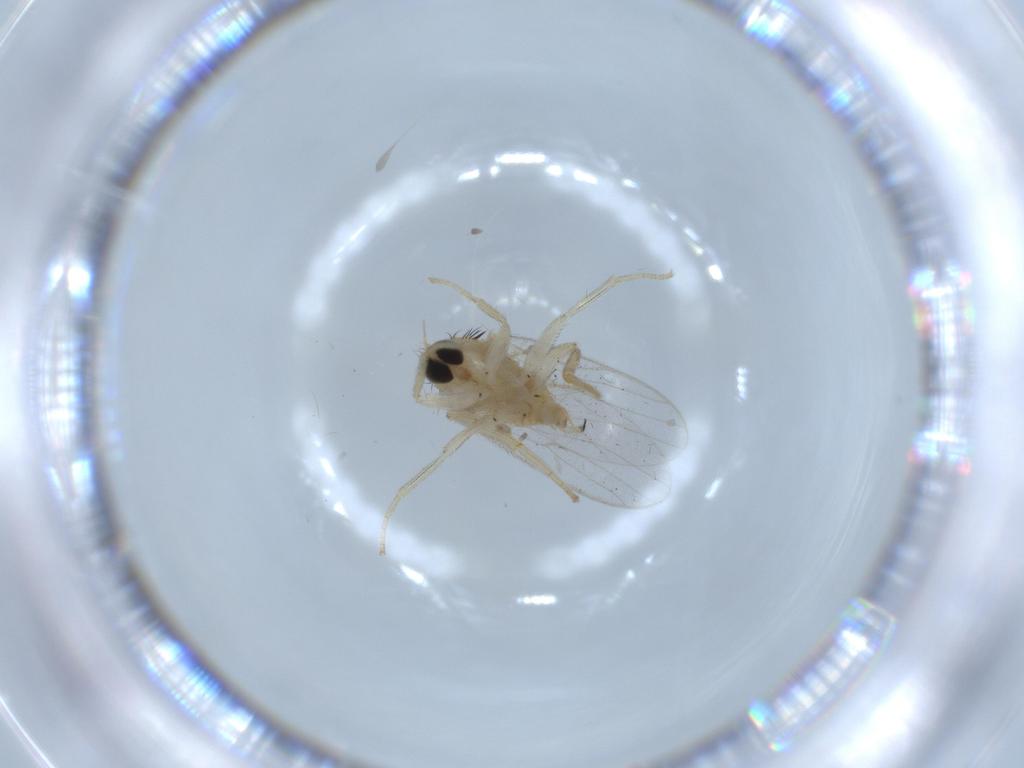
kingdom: Animalia
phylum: Arthropoda
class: Insecta
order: Diptera
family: Hybotidae
